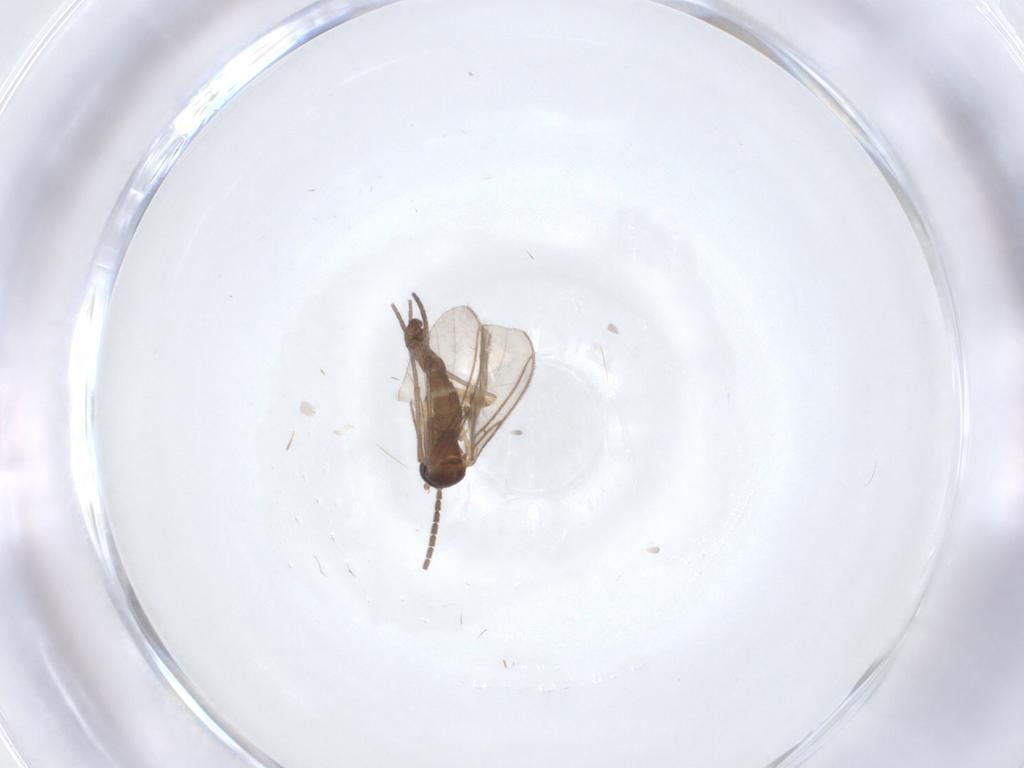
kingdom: Animalia
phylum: Arthropoda
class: Insecta
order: Diptera
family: Sciaridae
